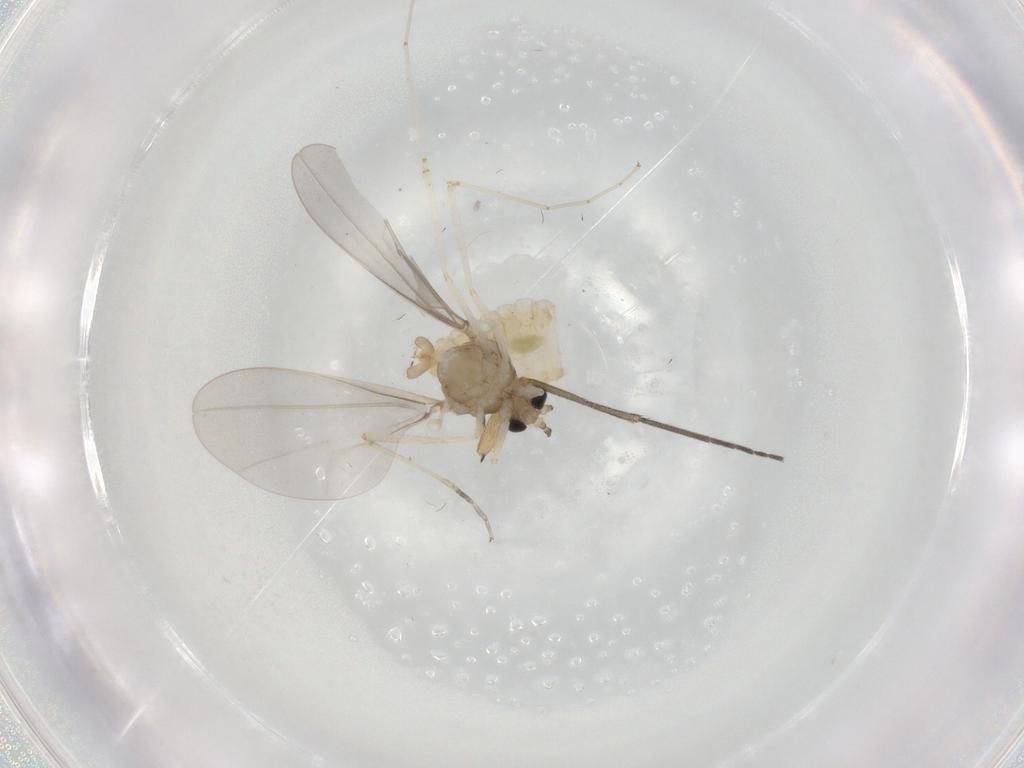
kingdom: Animalia
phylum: Arthropoda
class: Insecta
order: Diptera
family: Cecidomyiidae
